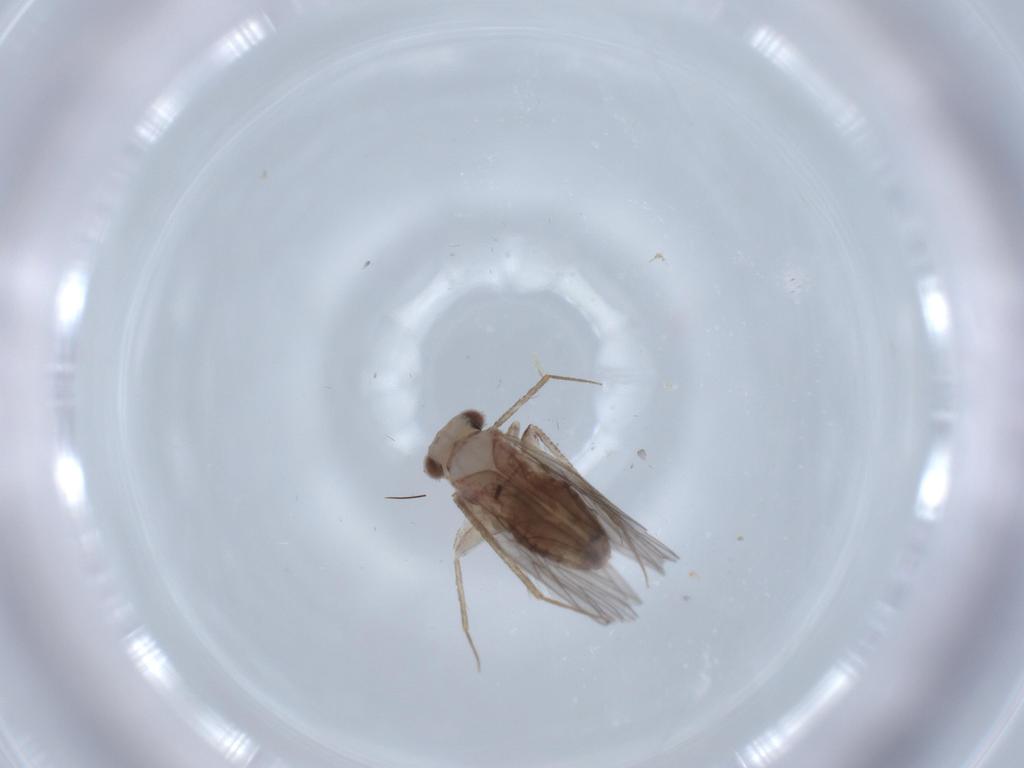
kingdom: Animalia
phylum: Arthropoda
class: Insecta
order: Psocodea
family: Lepidopsocidae
